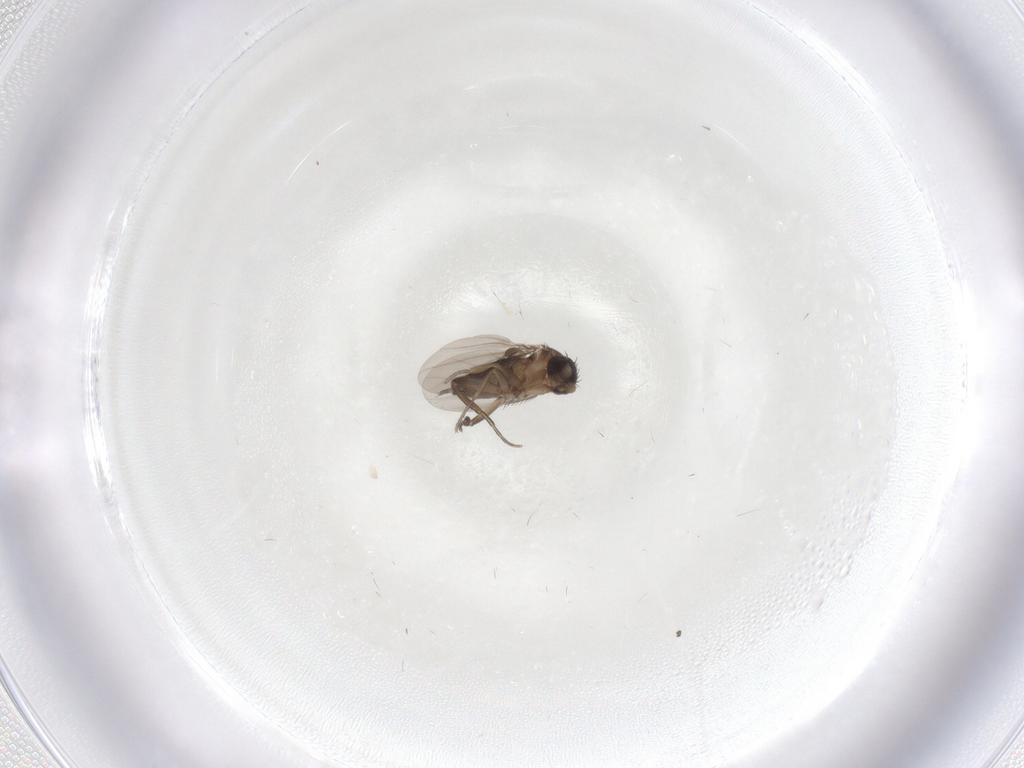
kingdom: Animalia
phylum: Arthropoda
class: Insecta
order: Diptera
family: Phoridae
